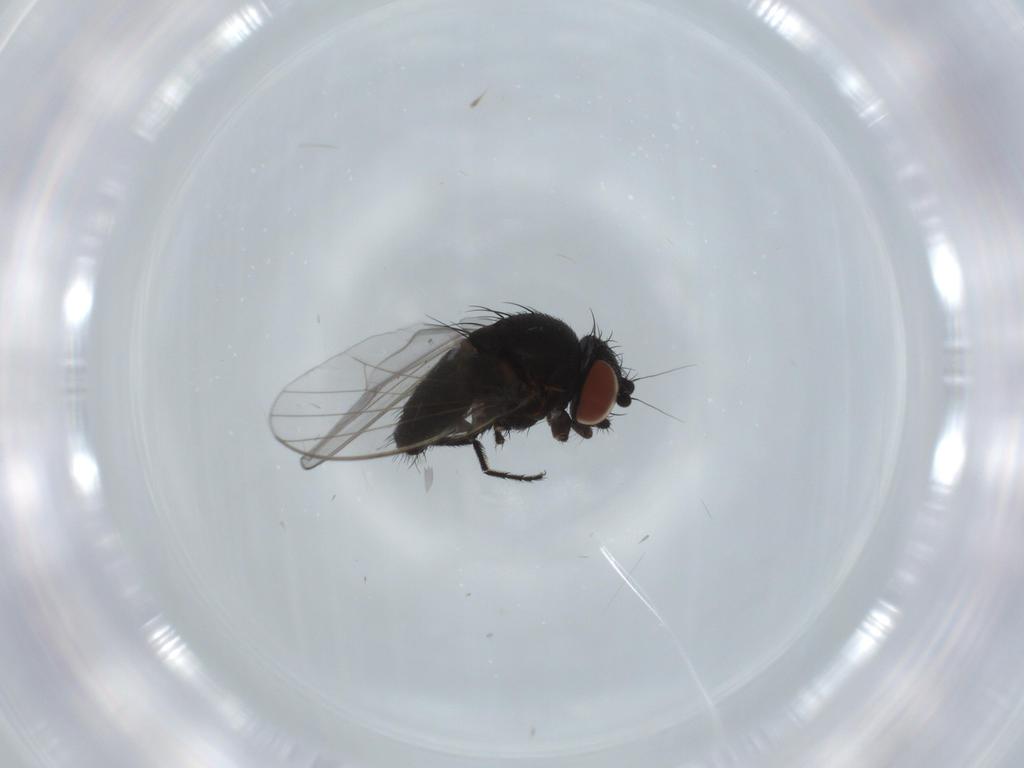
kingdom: Animalia
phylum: Arthropoda
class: Insecta
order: Diptera
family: Milichiidae
